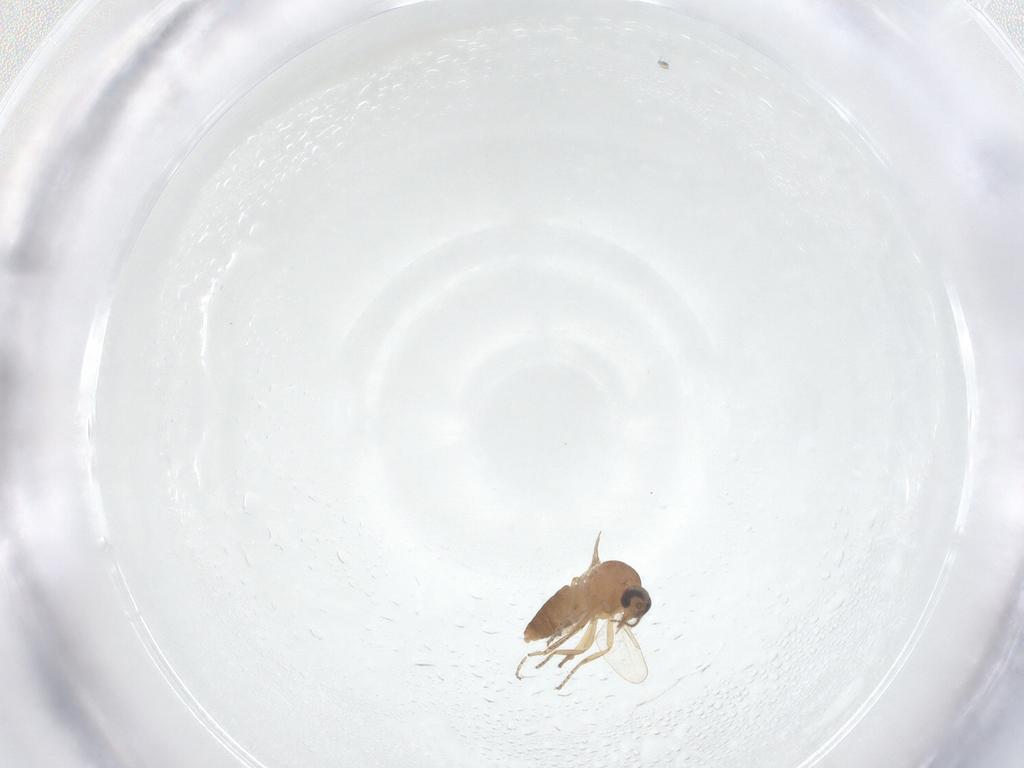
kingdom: Animalia
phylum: Arthropoda
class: Insecta
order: Diptera
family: Ceratopogonidae
